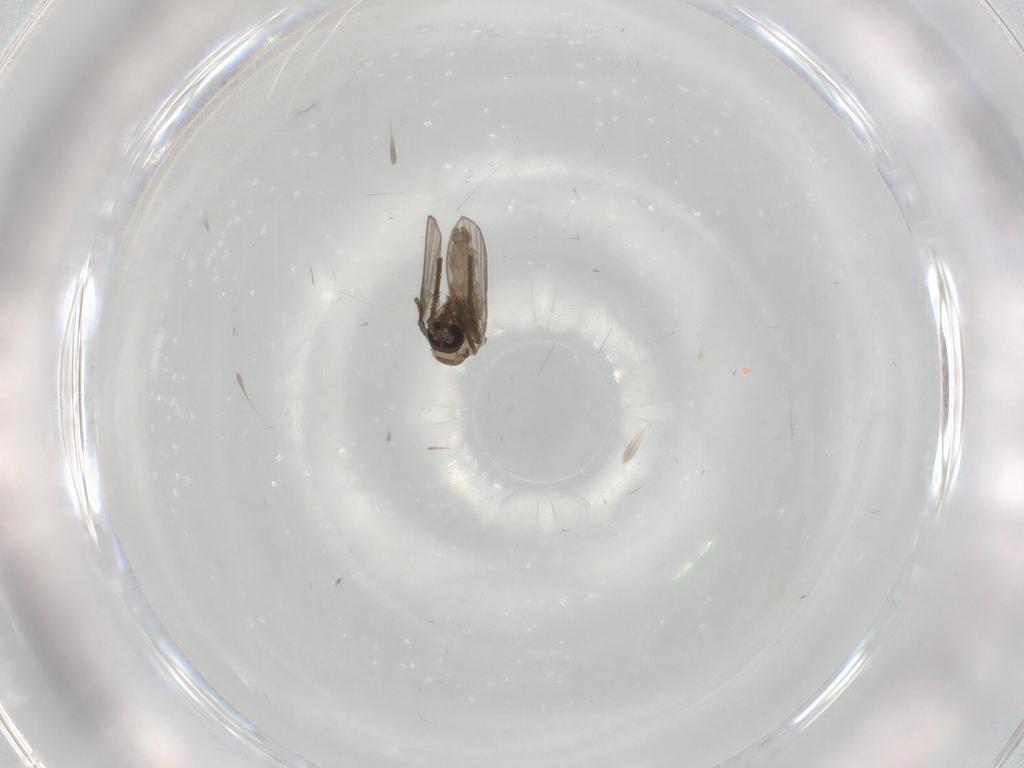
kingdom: Animalia
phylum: Arthropoda
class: Insecta
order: Diptera
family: Psychodidae
